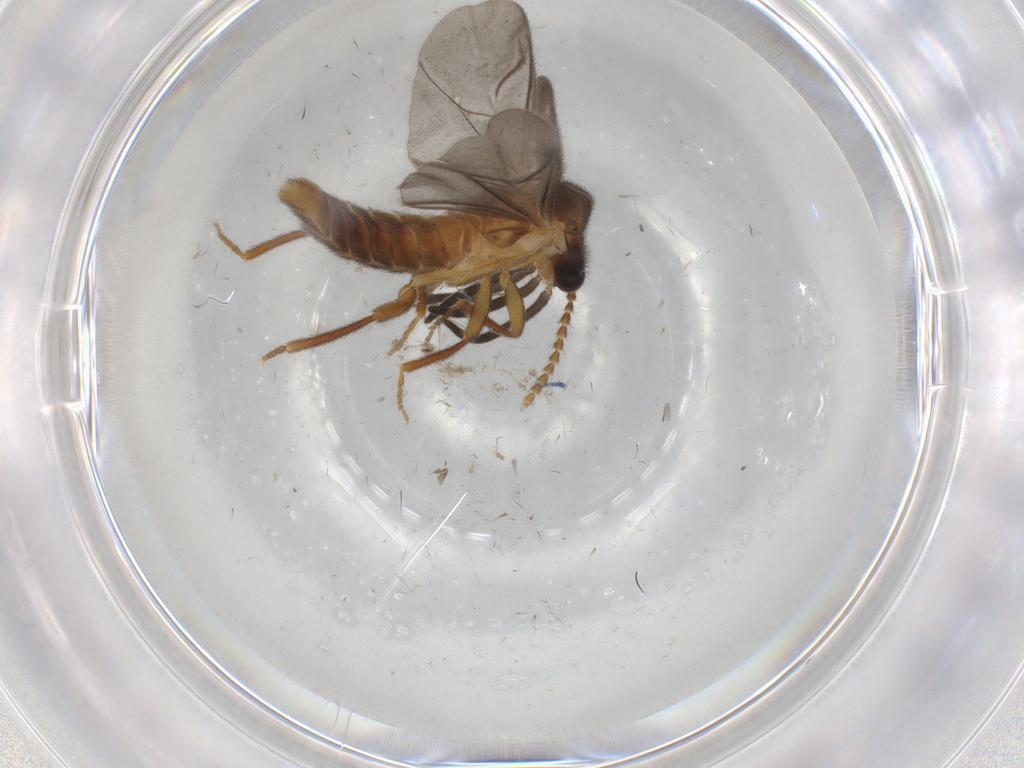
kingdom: Animalia
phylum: Arthropoda
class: Insecta
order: Coleoptera
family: Omethidae
